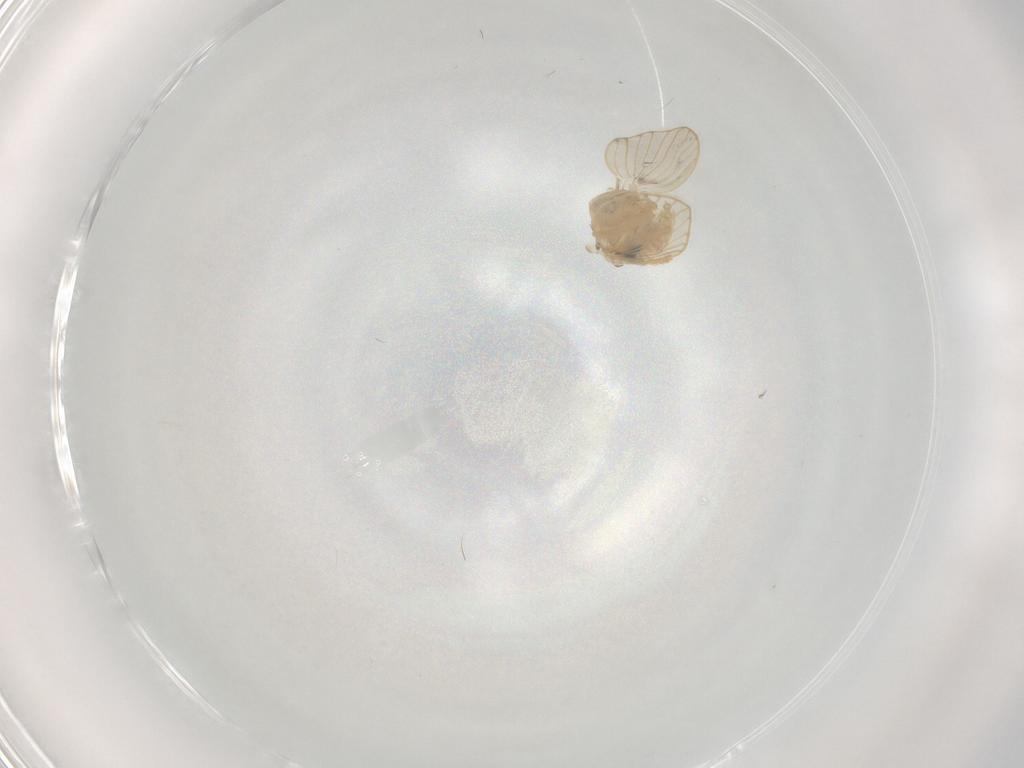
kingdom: Animalia
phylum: Arthropoda
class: Insecta
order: Diptera
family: Psychodidae
